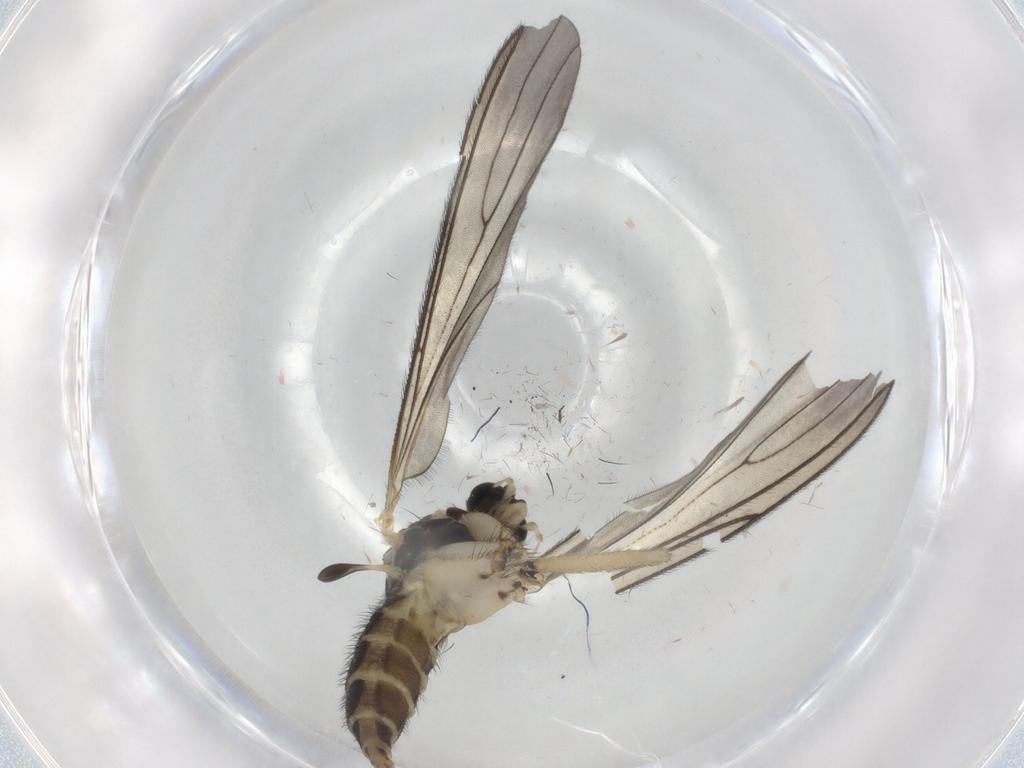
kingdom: Animalia
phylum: Arthropoda
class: Insecta
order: Diptera
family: Sciaridae
